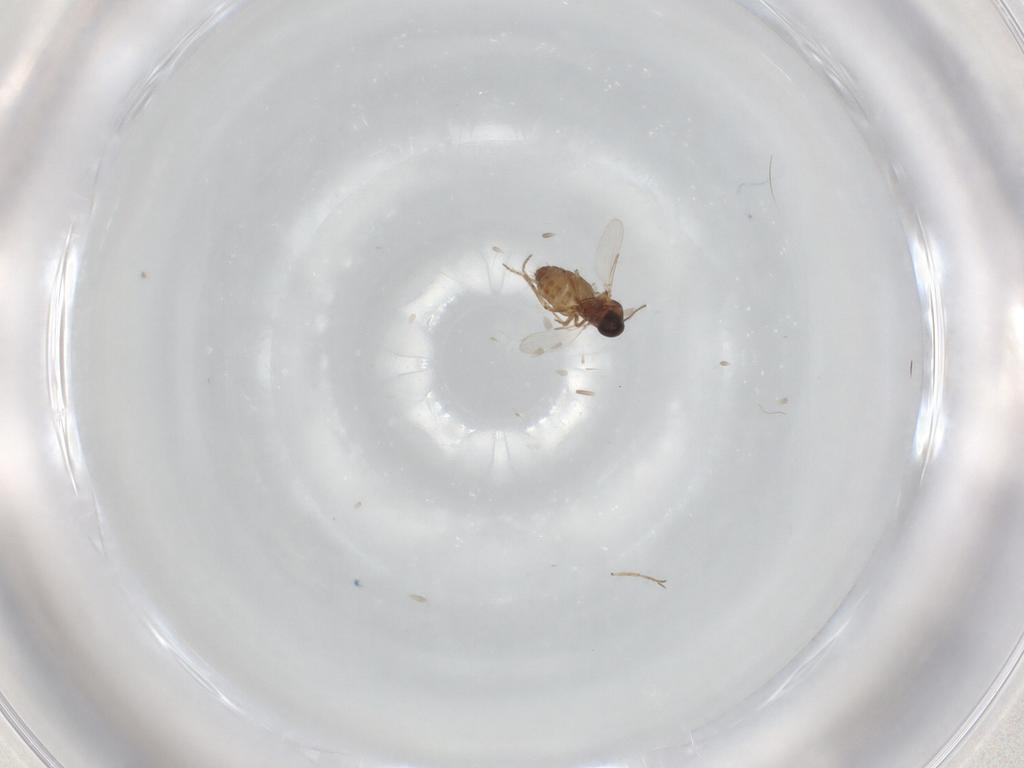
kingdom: Animalia
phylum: Arthropoda
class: Insecta
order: Diptera
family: Ceratopogonidae
